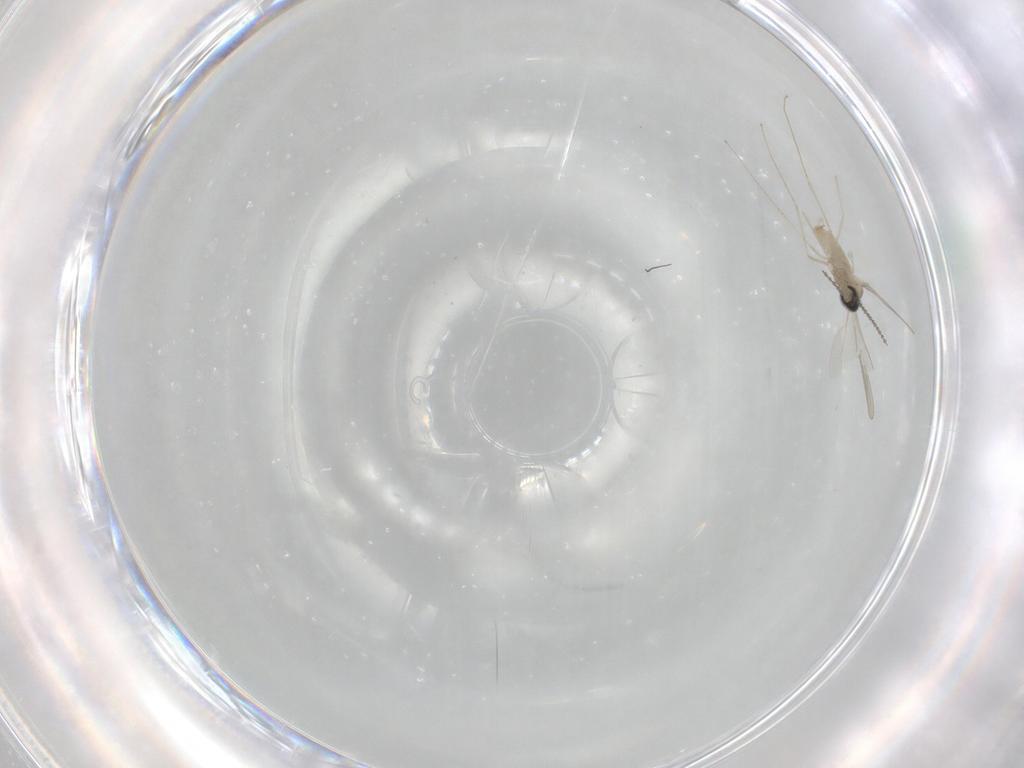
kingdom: Animalia
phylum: Arthropoda
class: Insecta
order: Diptera
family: Cecidomyiidae
